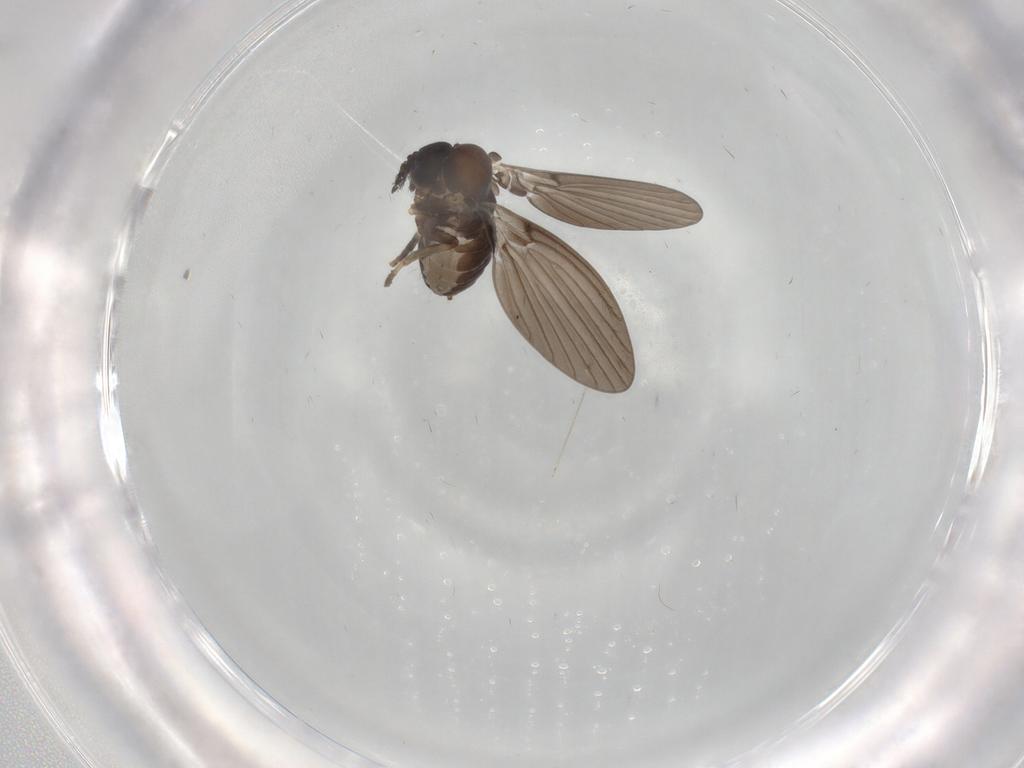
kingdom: Animalia
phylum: Arthropoda
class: Insecta
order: Diptera
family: Psychodidae
